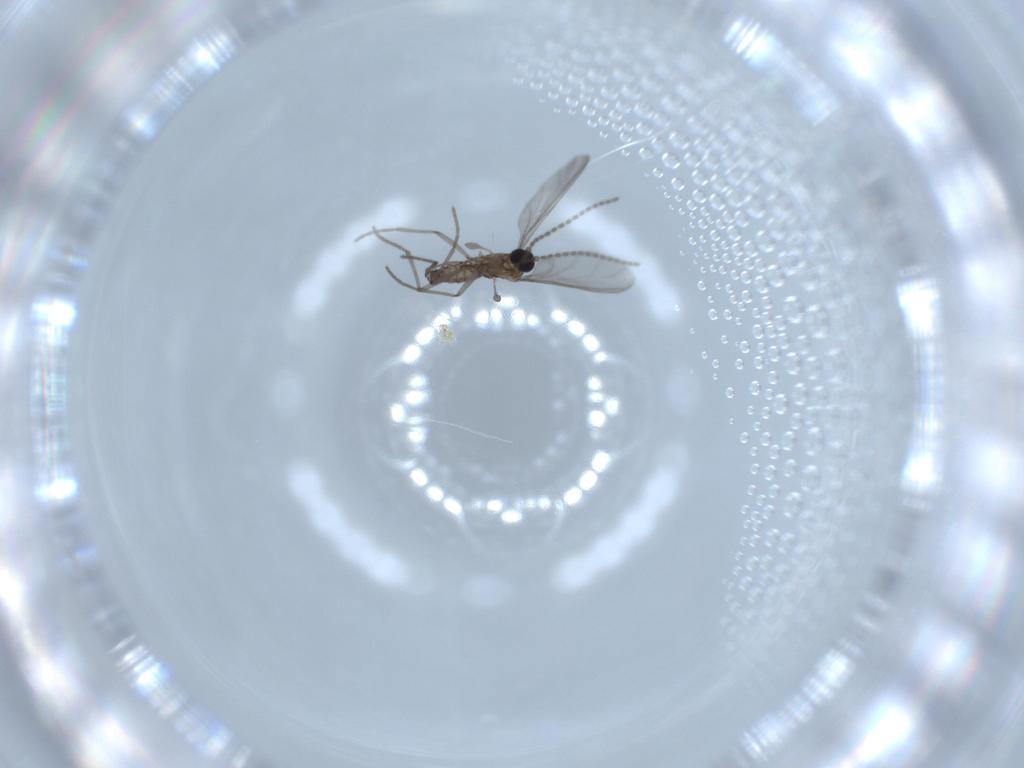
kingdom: Animalia
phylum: Arthropoda
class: Insecta
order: Diptera
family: Sciaridae
